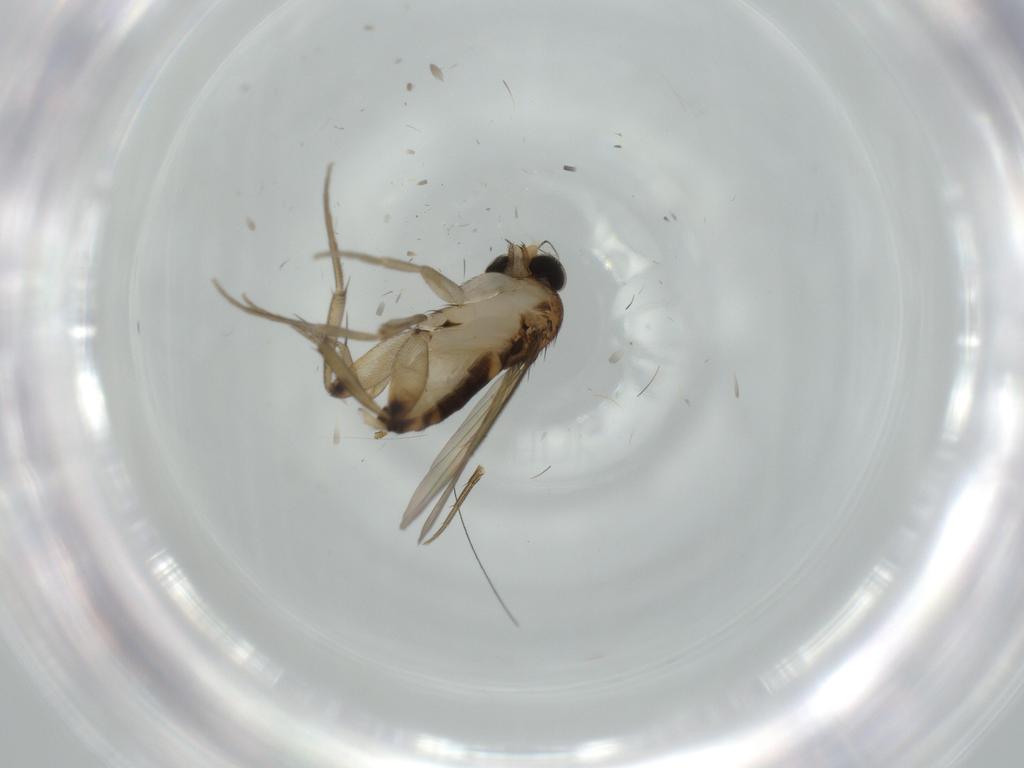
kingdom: Animalia
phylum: Arthropoda
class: Insecta
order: Diptera
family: Phoridae
